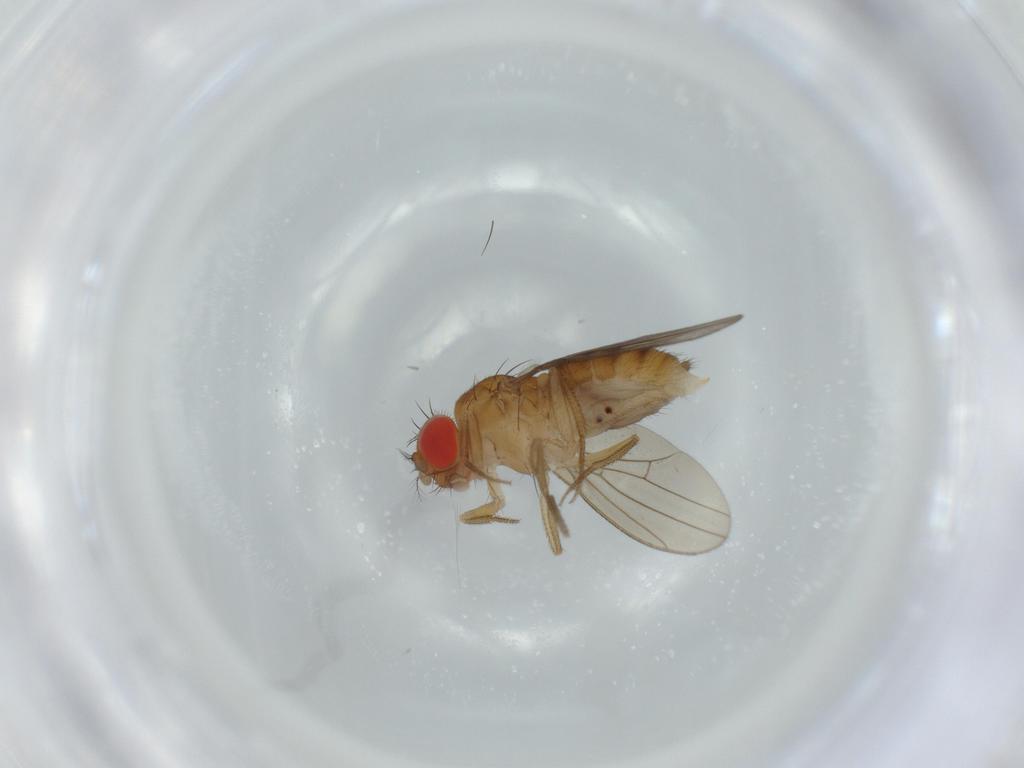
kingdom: Animalia
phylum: Arthropoda
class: Insecta
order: Diptera
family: Drosophilidae
